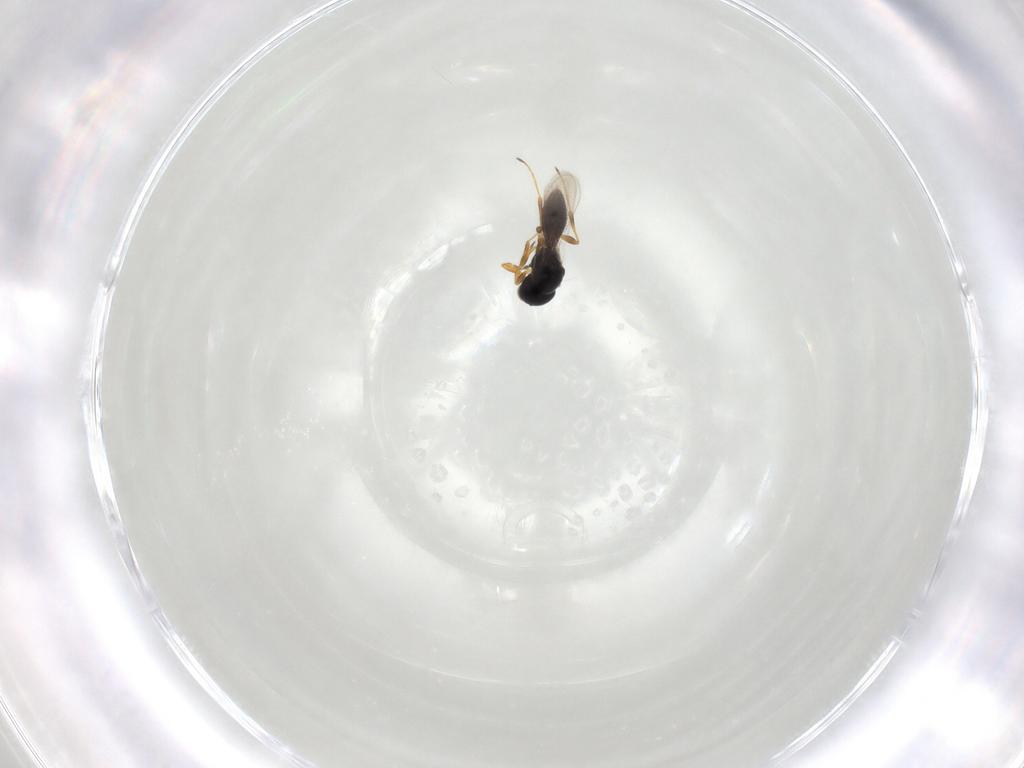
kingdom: Animalia
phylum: Arthropoda
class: Insecta
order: Hymenoptera
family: Platygastridae
